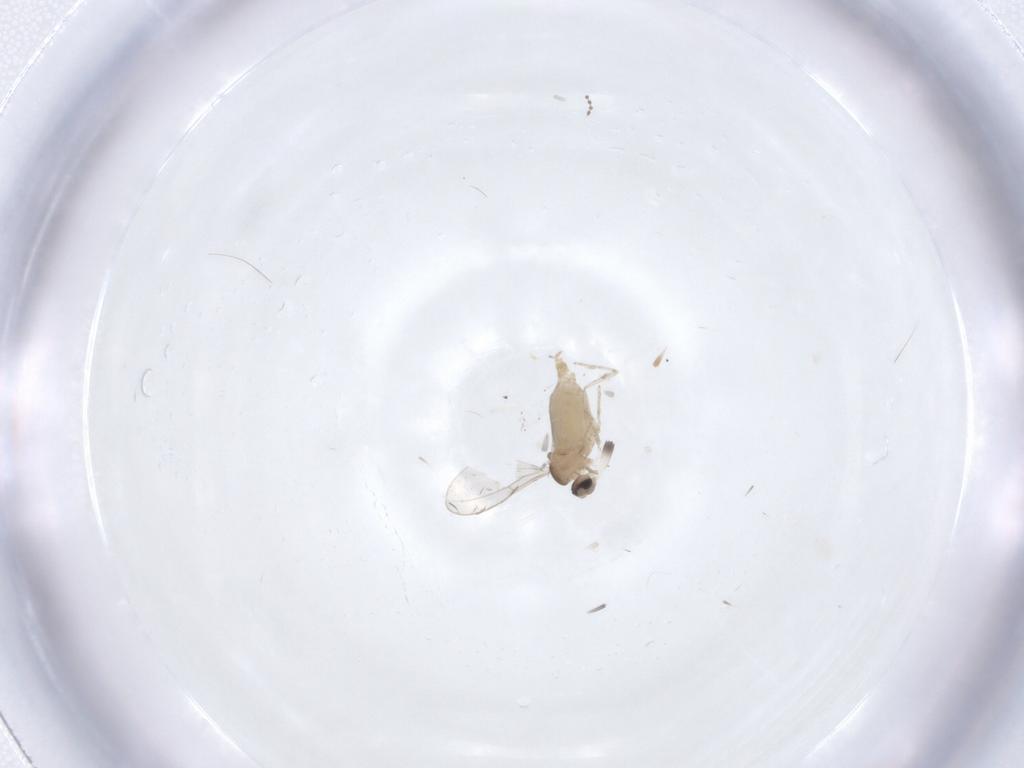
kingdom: Animalia
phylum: Arthropoda
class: Insecta
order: Diptera
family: Cecidomyiidae
